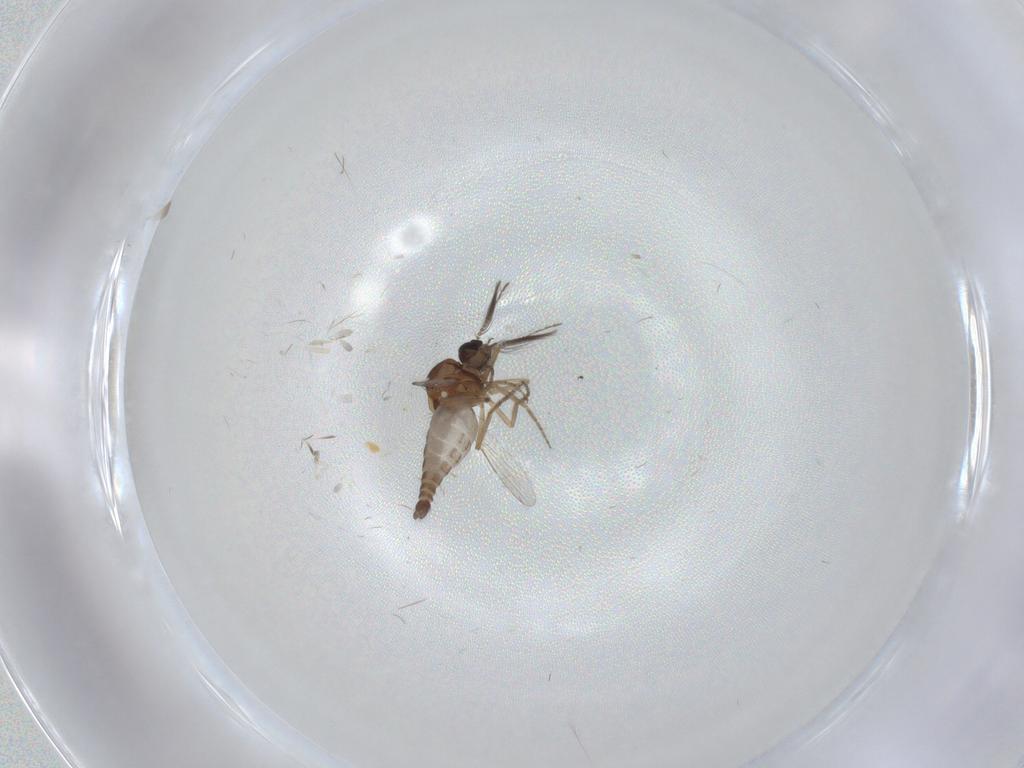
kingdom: Animalia
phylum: Arthropoda
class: Insecta
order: Diptera
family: Ceratopogonidae
